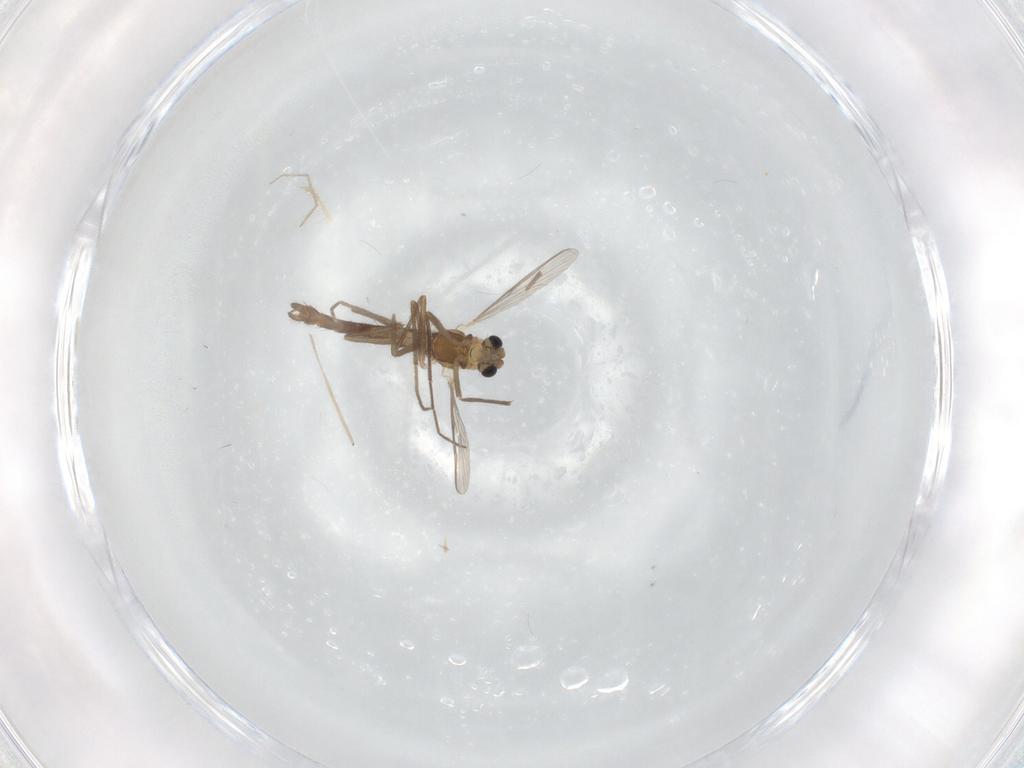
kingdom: Animalia
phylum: Arthropoda
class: Insecta
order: Diptera
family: Chironomidae
